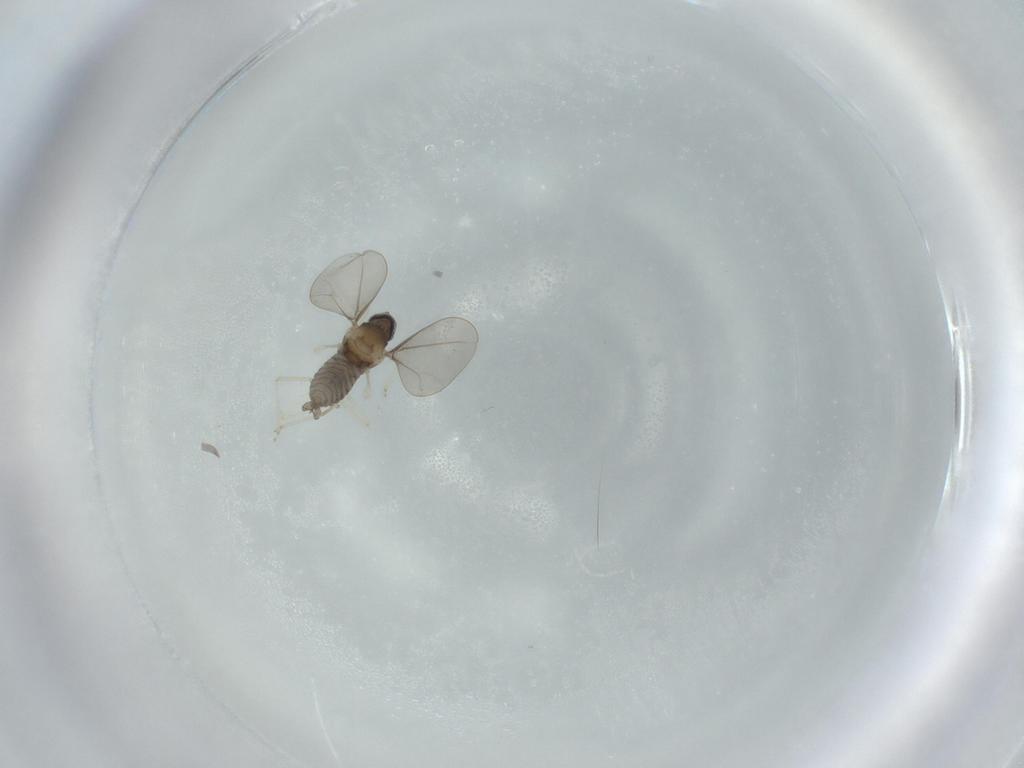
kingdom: Animalia
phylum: Arthropoda
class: Insecta
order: Diptera
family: Cecidomyiidae
